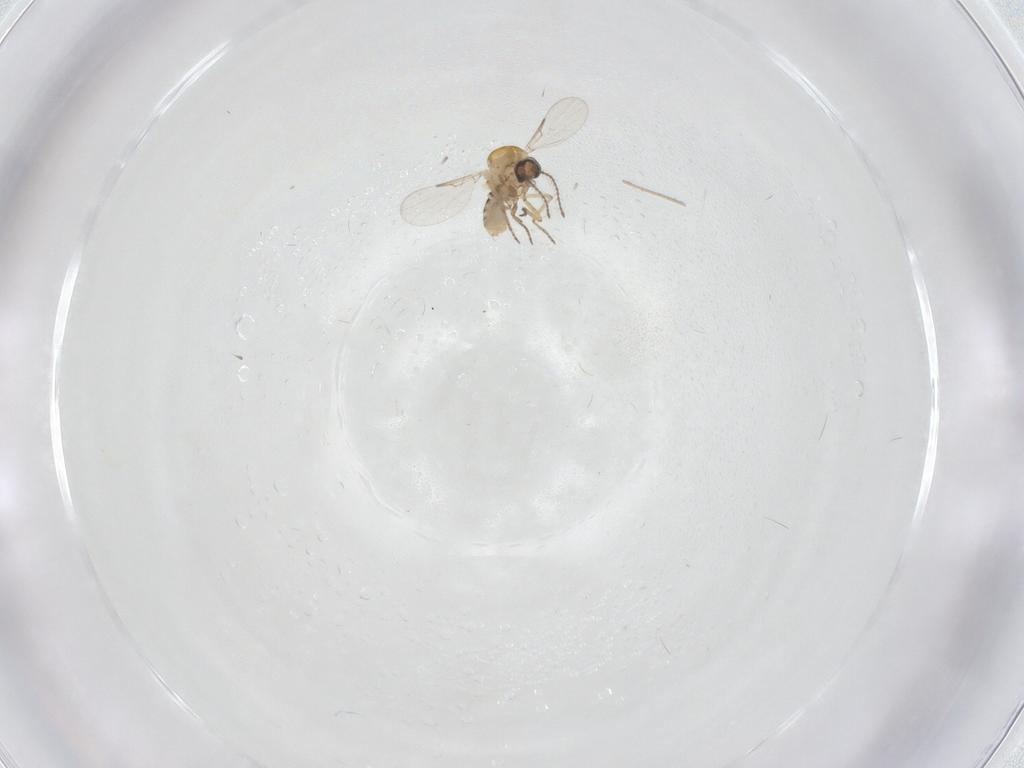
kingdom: Animalia
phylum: Arthropoda
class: Insecta
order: Diptera
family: Ceratopogonidae
